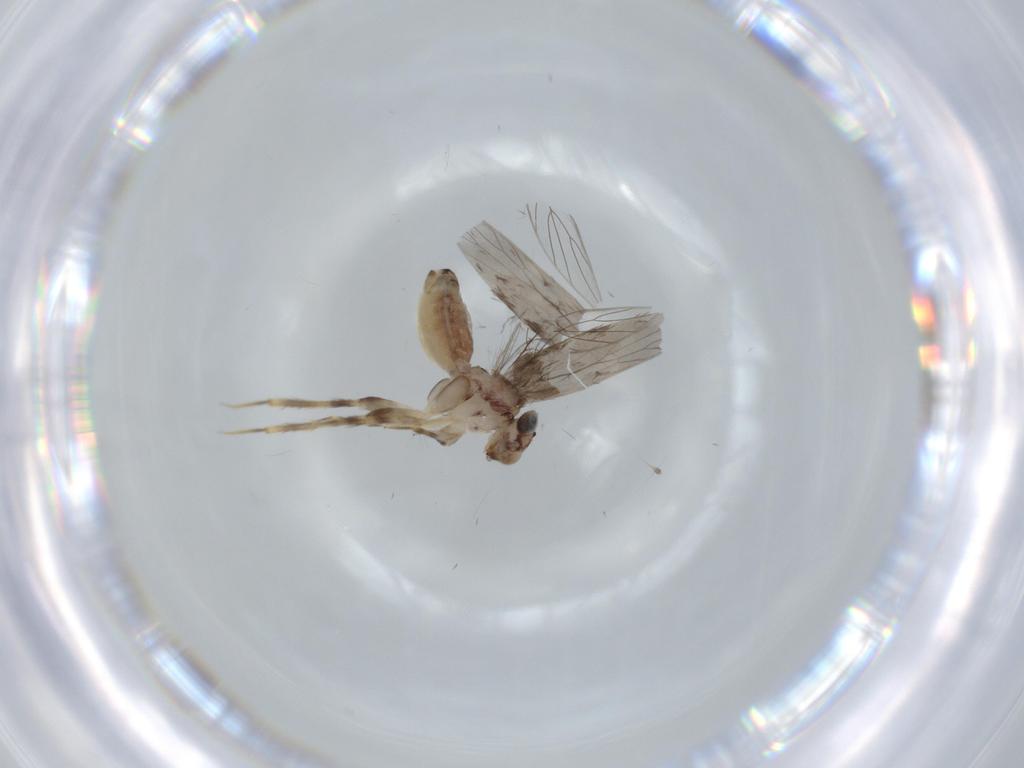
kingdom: Animalia
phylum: Arthropoda
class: Insecta
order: Psocodea
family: Lepidopsocidae
